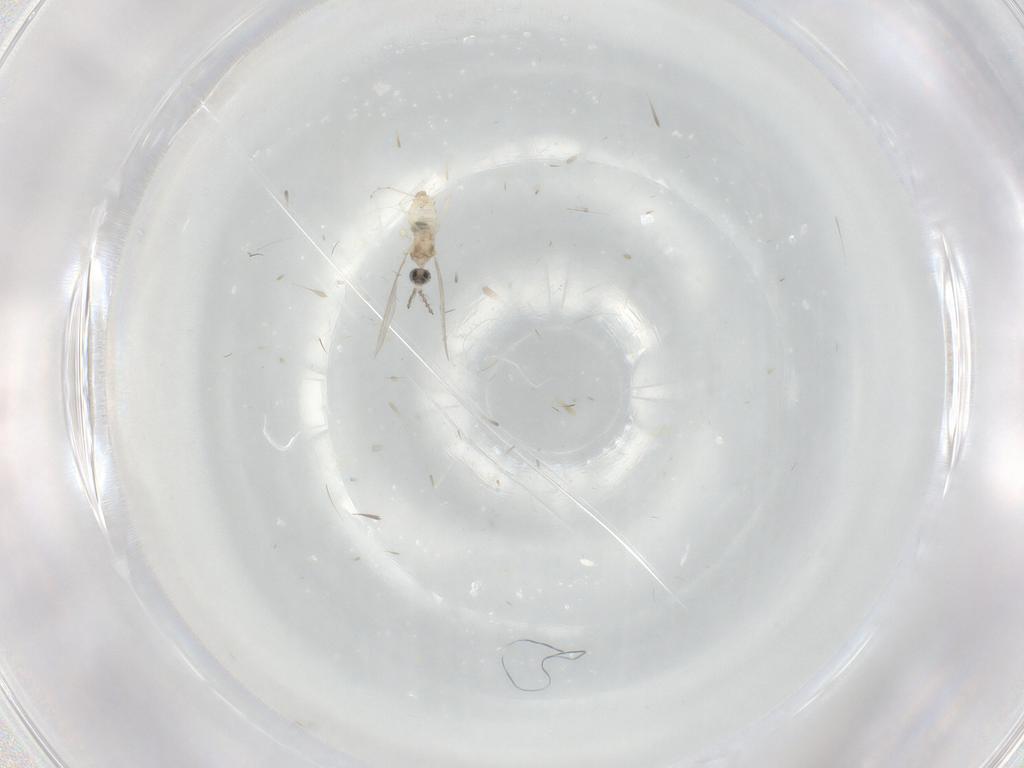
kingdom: Animalia
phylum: Arthropoda
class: Insecta
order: Diptera
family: Cecidomyiidae
